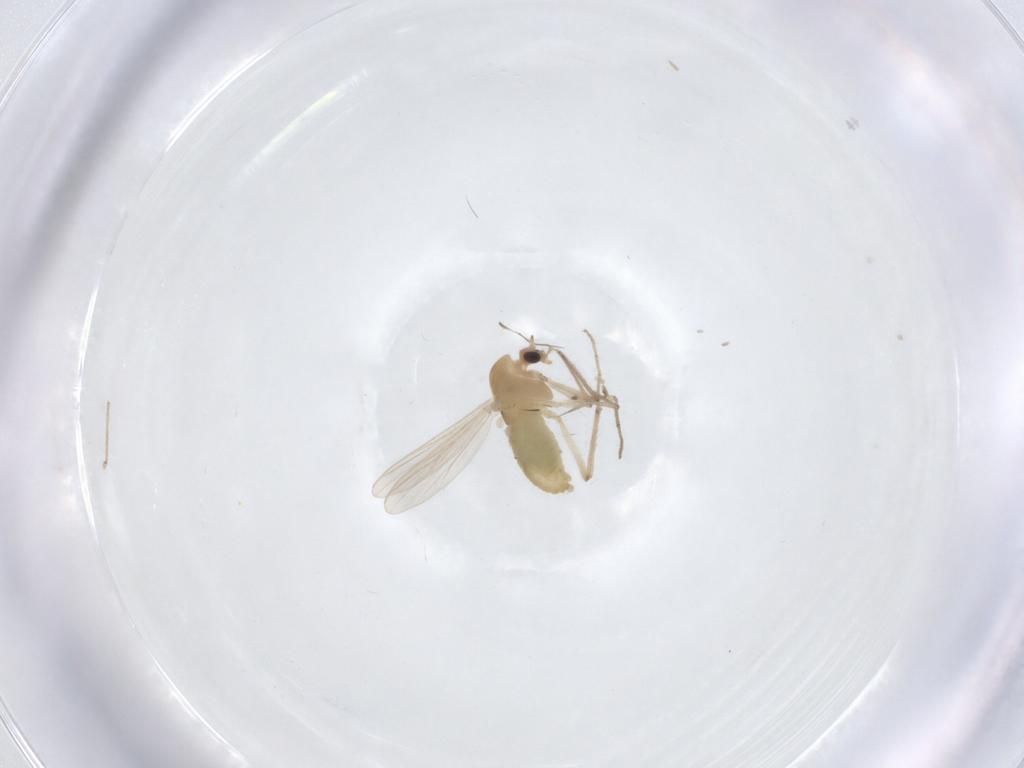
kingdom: Animalia
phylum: Arthropoda
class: Insecta
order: Diptera
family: Chironomidae
